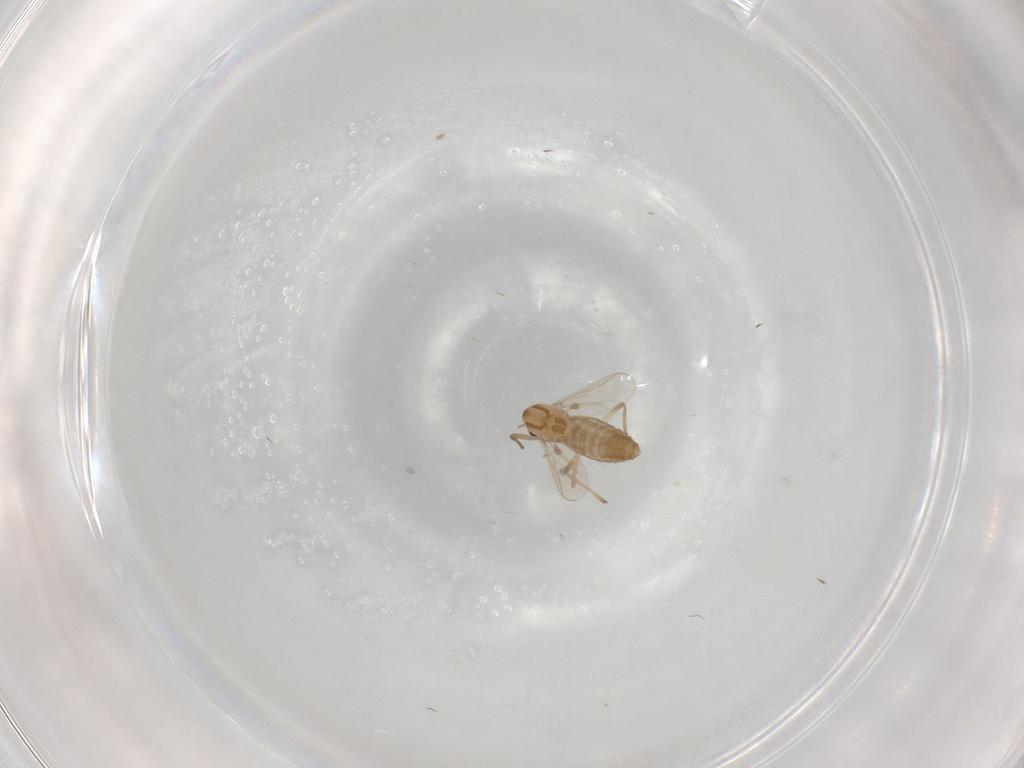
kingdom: Animalia
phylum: Arthropoda
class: Insecta
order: Diptera
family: Chironomidae
